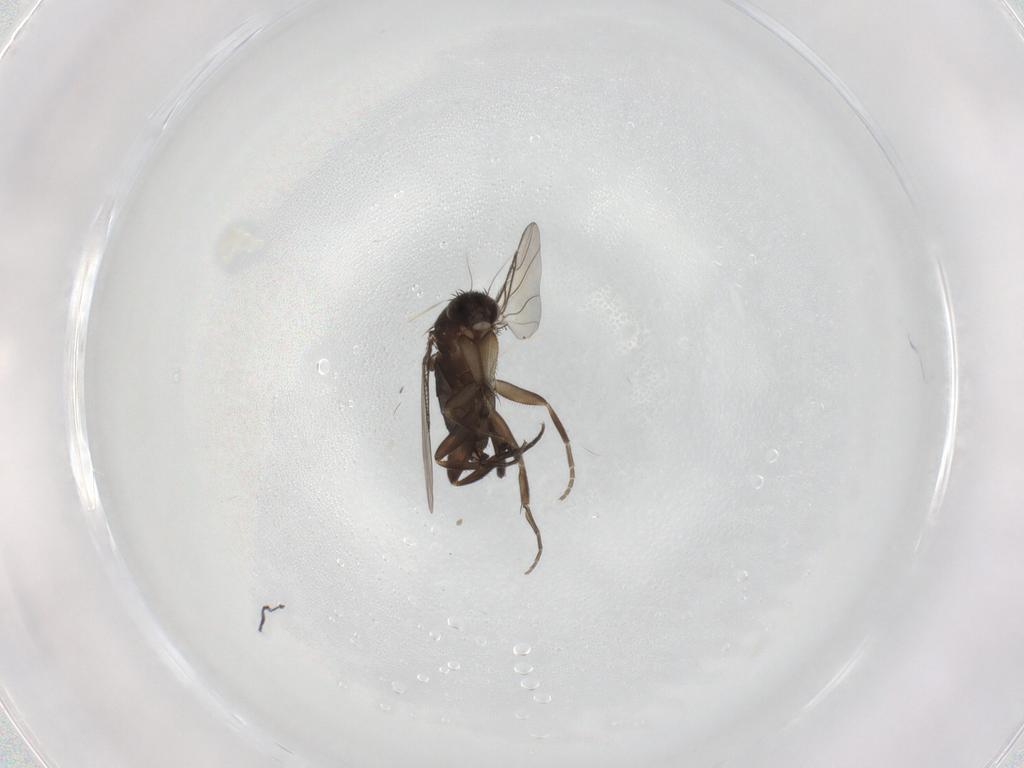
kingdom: Animalia
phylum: Arthropoda
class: Insecta
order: Diptera
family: Phoridae
